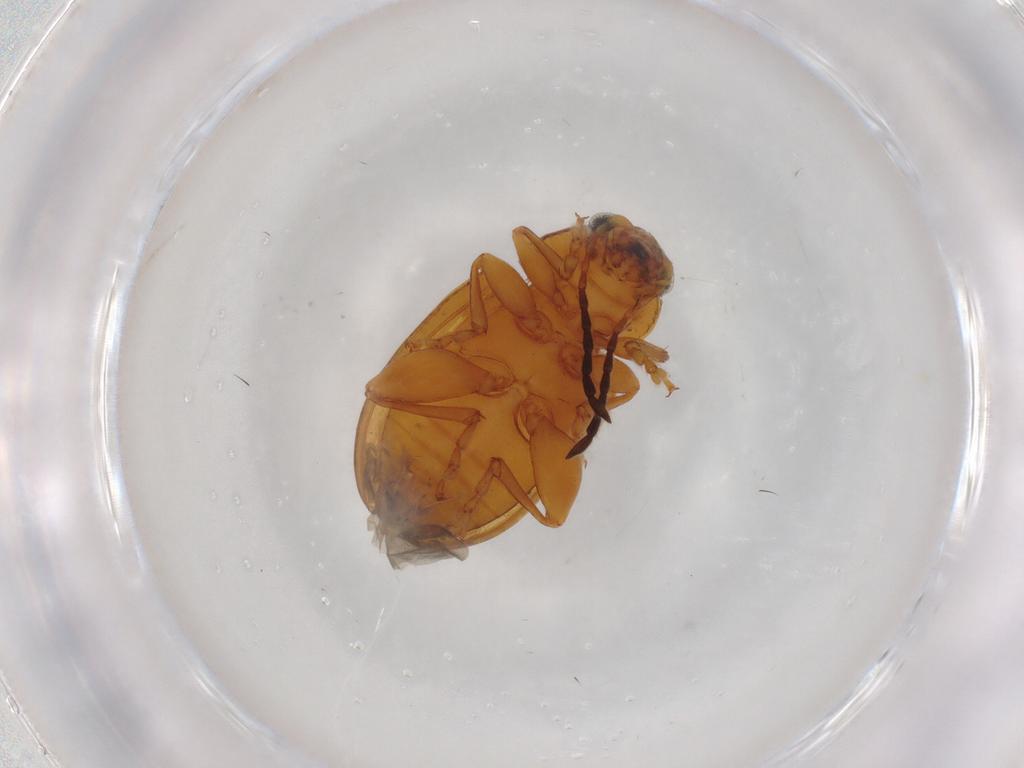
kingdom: Animalia
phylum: Arthropoda
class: Insecta
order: Coleoptera
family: Chrysomelidae
